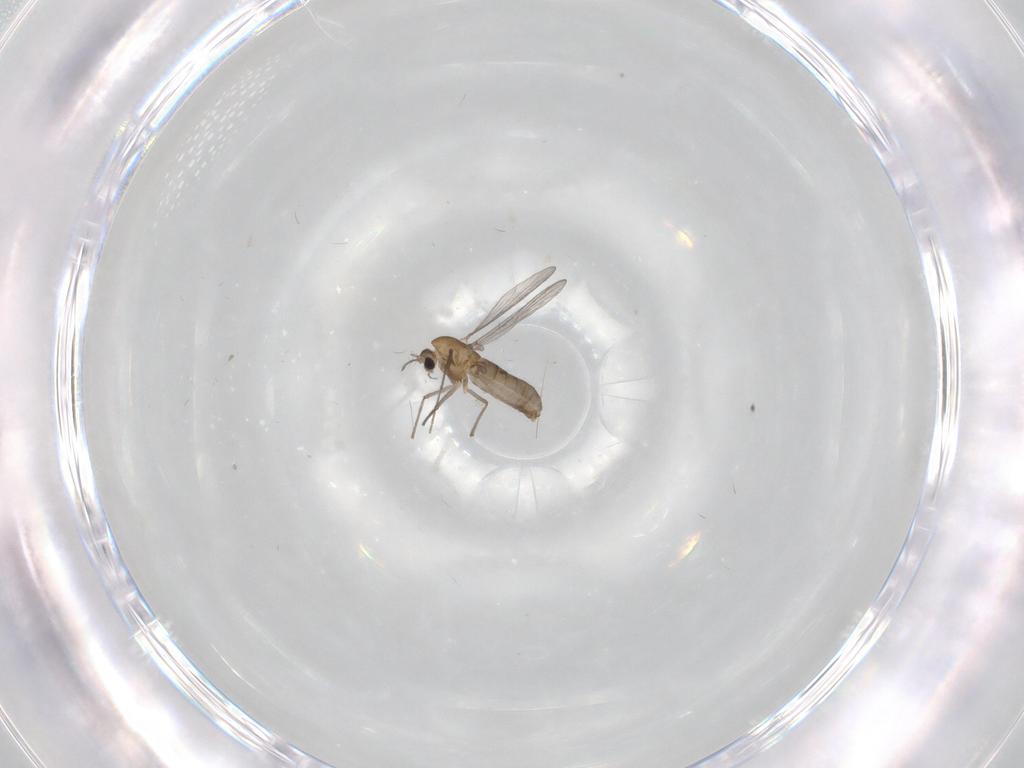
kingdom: Animalia
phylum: Arthropoda
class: Insecta
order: Diptera
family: Chironomidae
